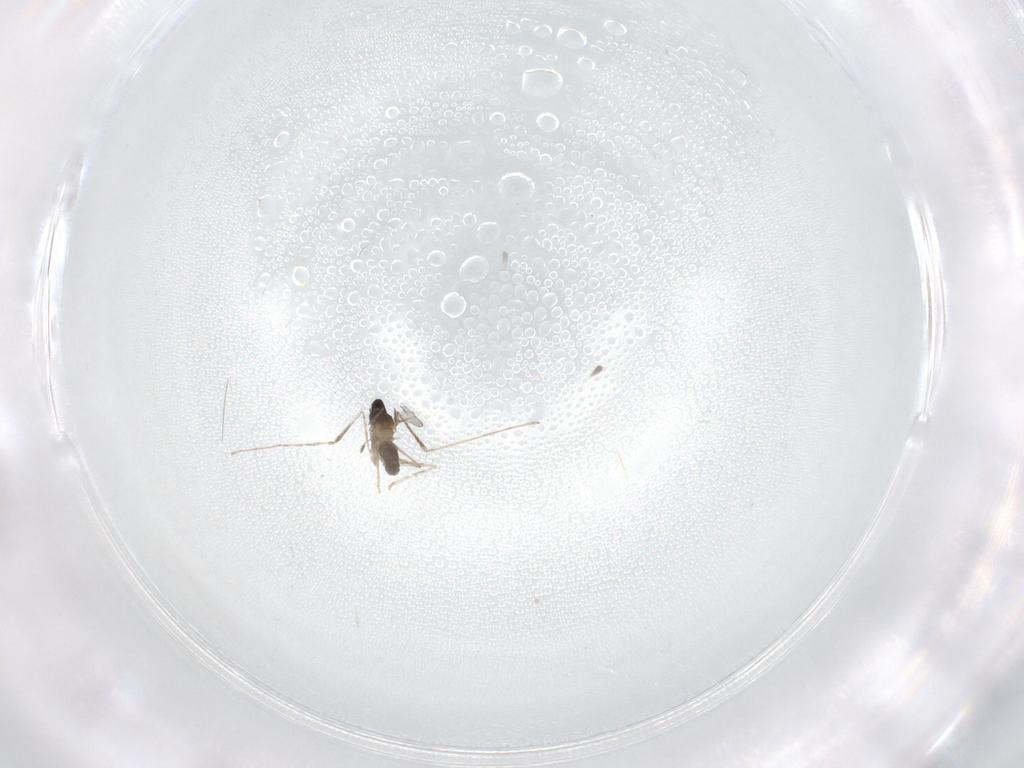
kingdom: Animalia
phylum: Arthropoda
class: Insecta
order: Diptera
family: Cecidomyiidae
